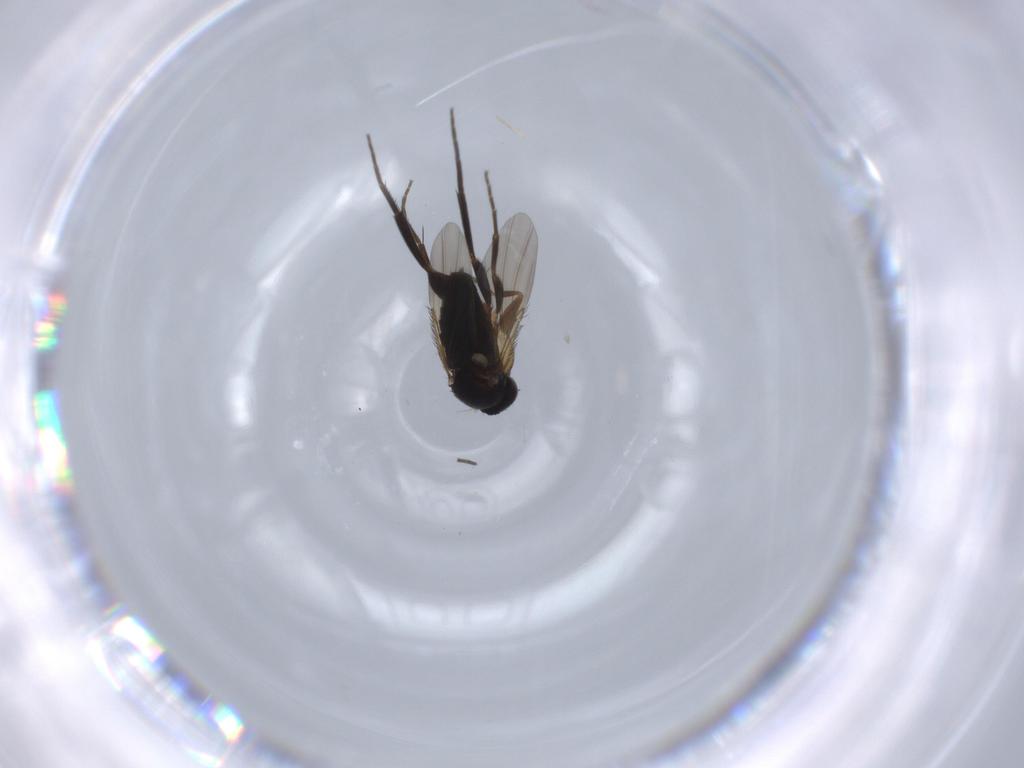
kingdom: Animalia
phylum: Arthropoda
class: Insecta
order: Diptera
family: Phoridae
